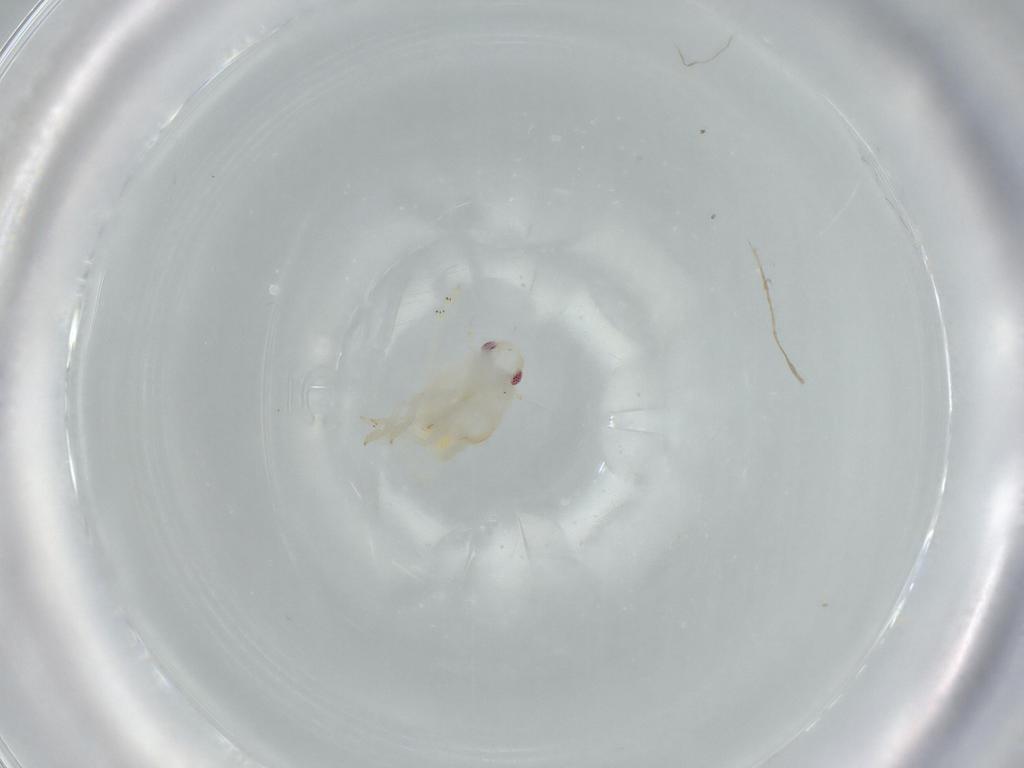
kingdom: Animalia
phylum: Arthropoda
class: Insecta
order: Hemiptera
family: Flatidae
